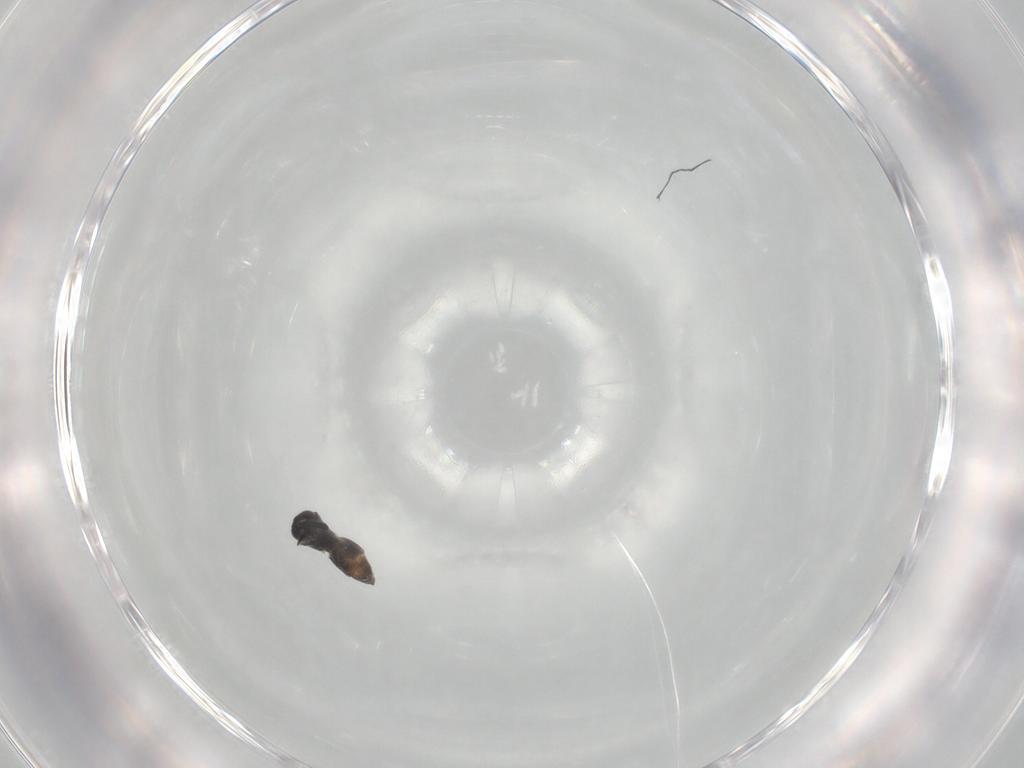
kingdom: Animalia
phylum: Arthropoda
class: Insecta
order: Hymenoptera
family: Ceraphronidae
